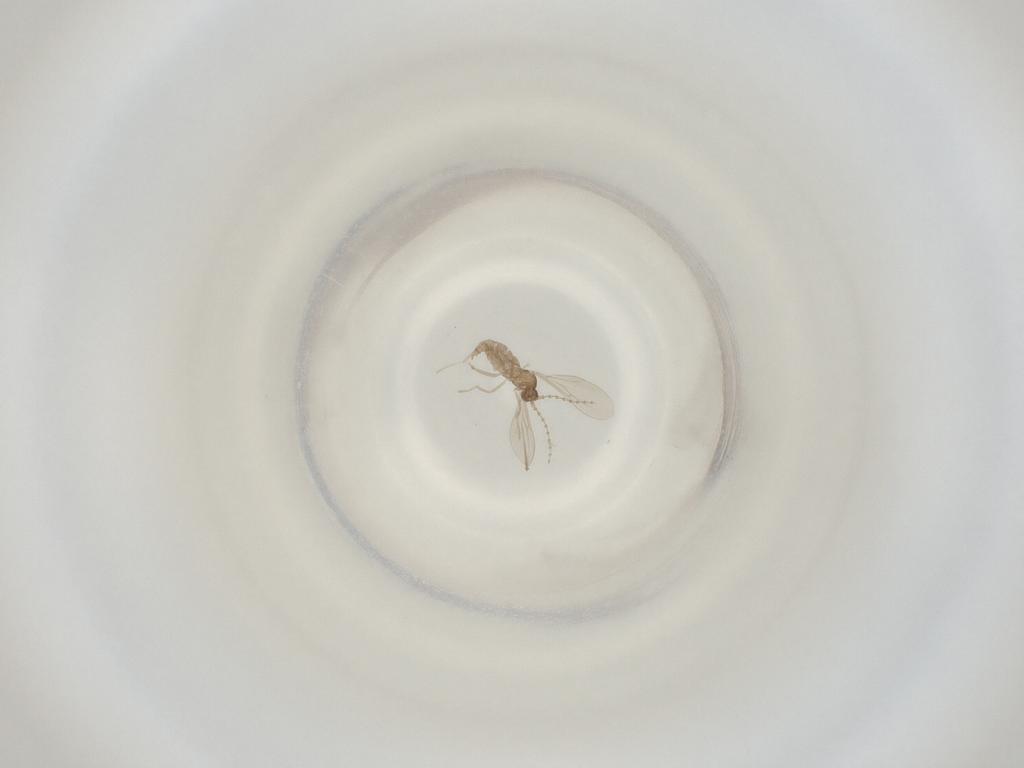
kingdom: Animalia
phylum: Arthropoda
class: Insecta
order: Diptera
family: Cecidomyiidae
